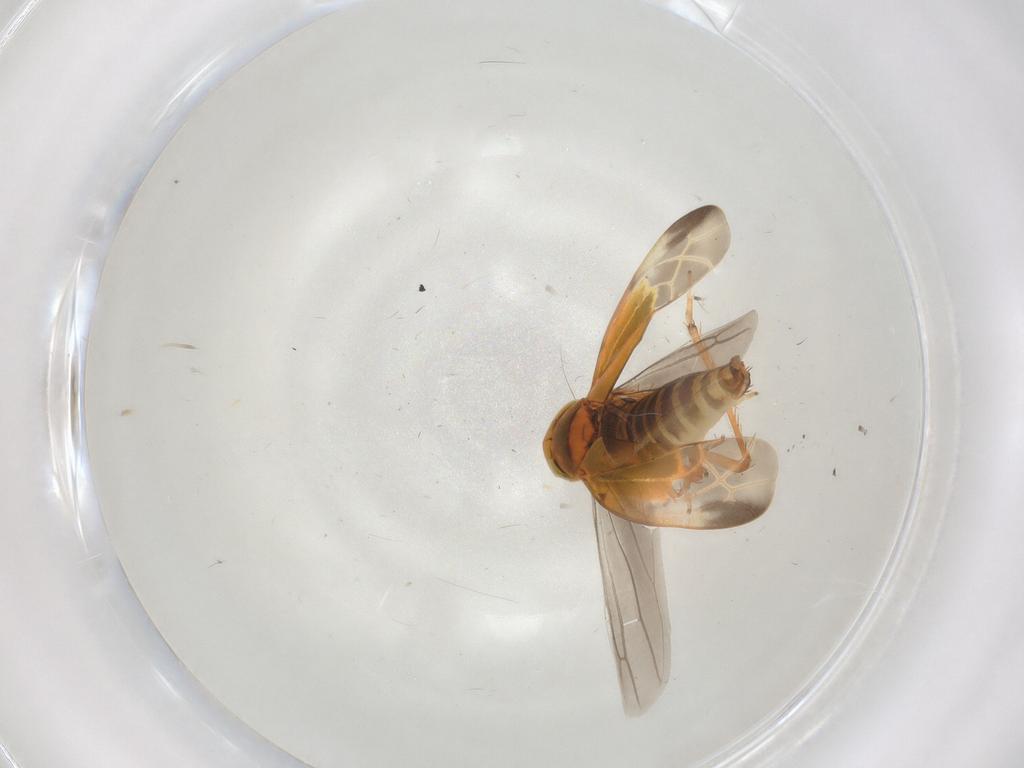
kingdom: Animalia
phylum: Arthropoda
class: Insecta
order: Hemiptera
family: Cicadellidae
